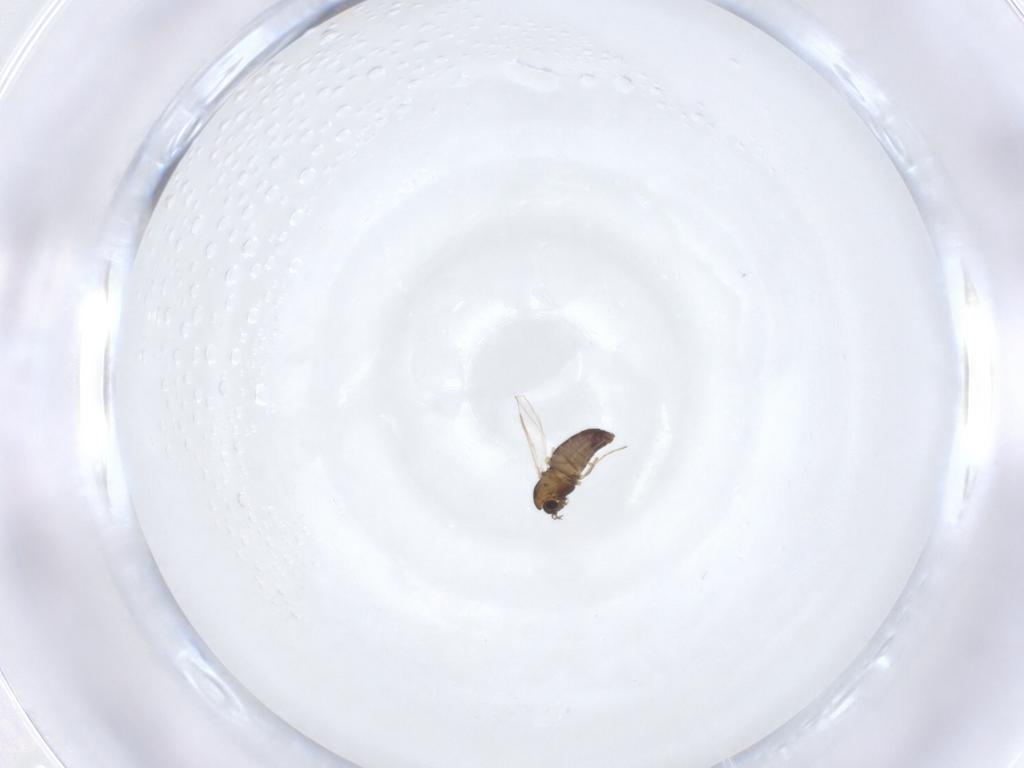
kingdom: Animalia
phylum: Arthropoda
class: Insecta
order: Diptera
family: Chironomidae
